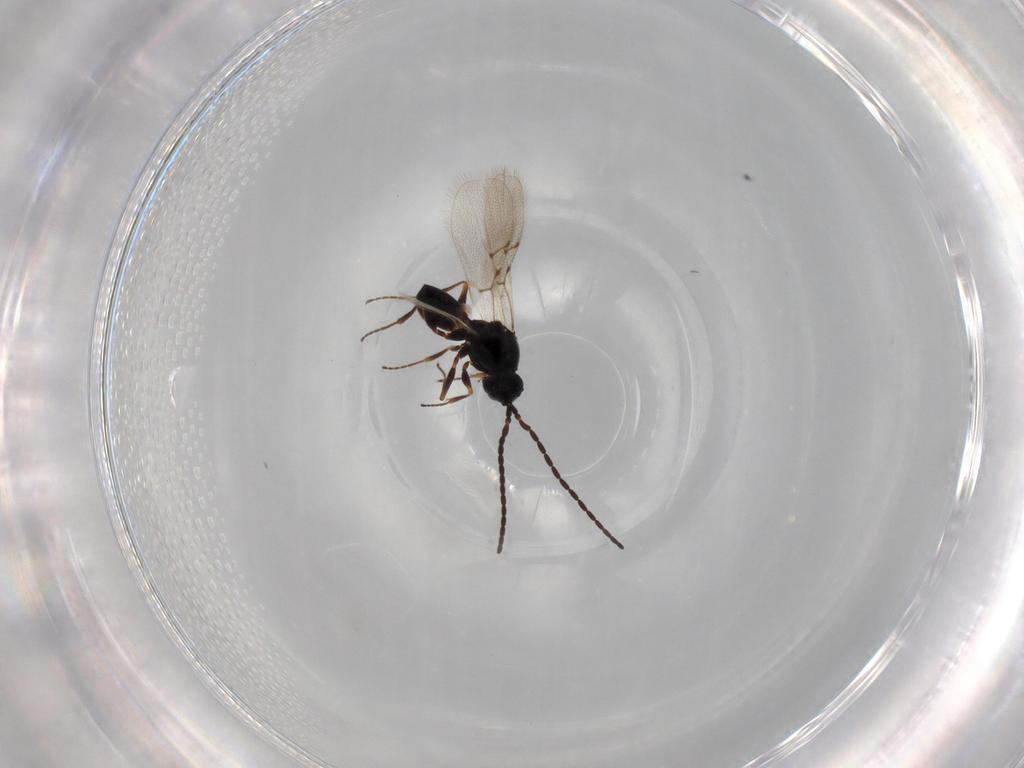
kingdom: Animalia
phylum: Arthropoda
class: Insecta
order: Hymenoptera
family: Figitidae
